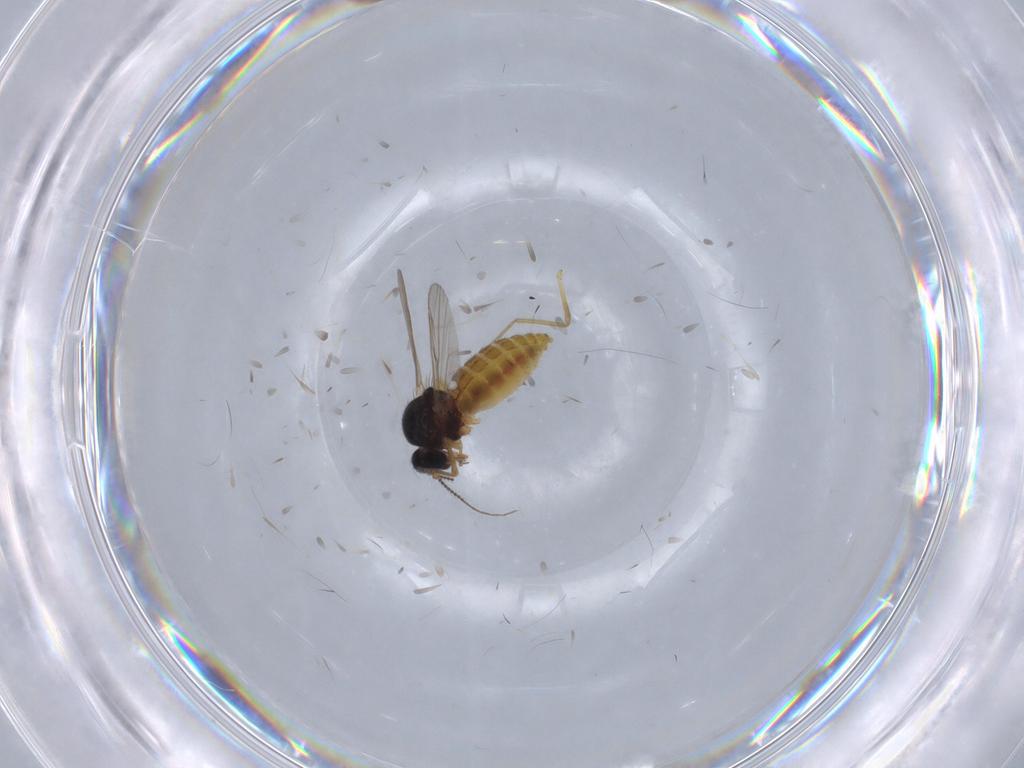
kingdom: Animalia
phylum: Arthropoda
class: Insecta
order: Diptera
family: Ceratopogonidae
